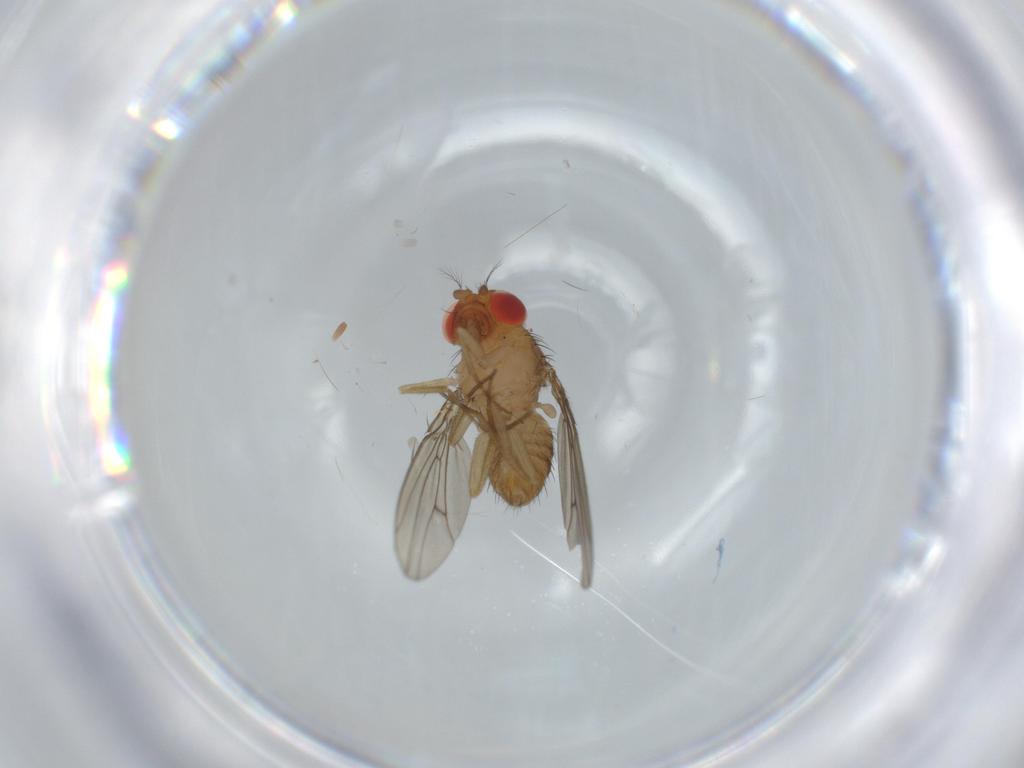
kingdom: Animalia
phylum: Arthropoda
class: Insecta
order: Diptera
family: Drosophilidae
